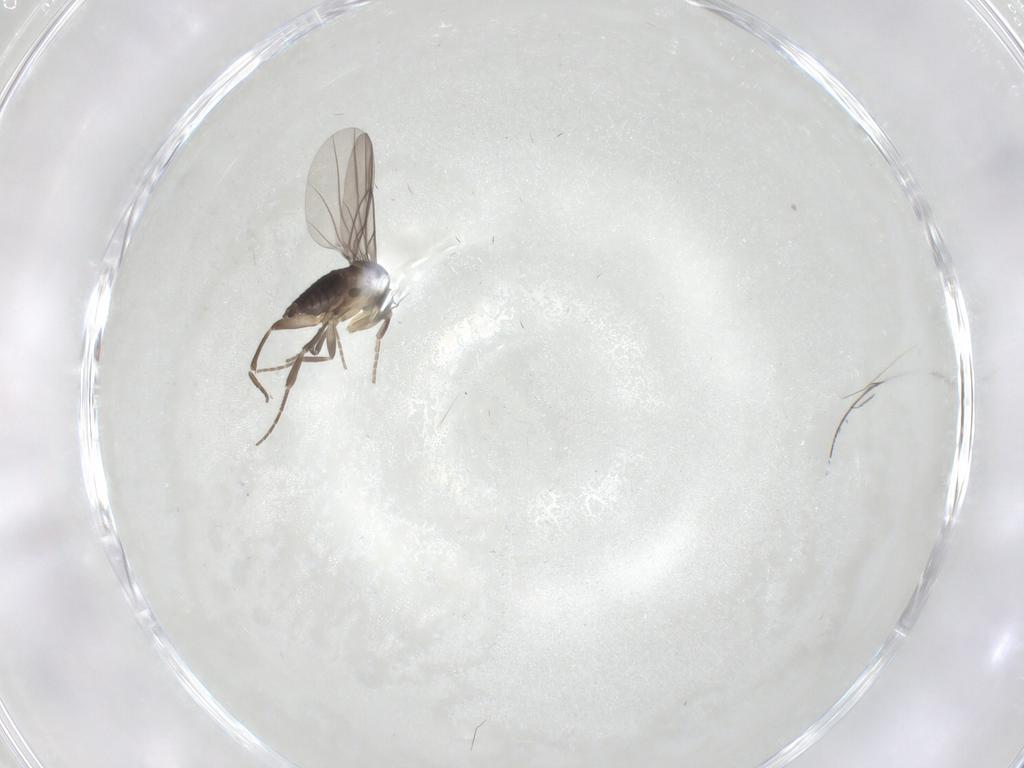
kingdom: Animalia
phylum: Arthropoda
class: Insecta
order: Diptera
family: Phoridae
